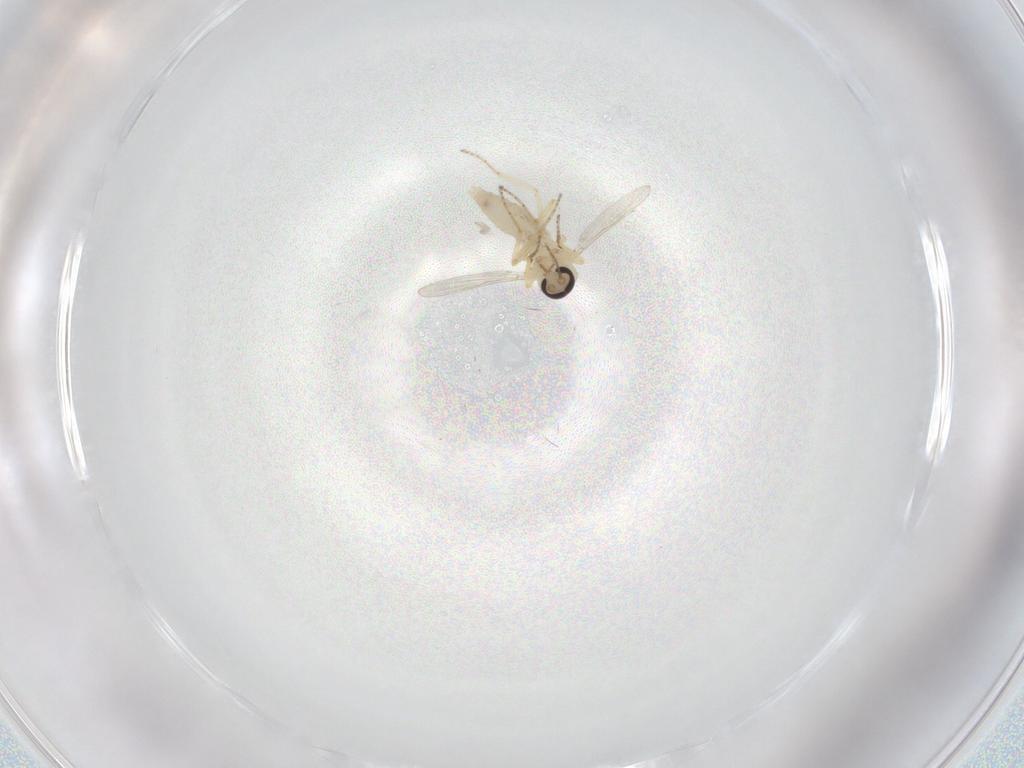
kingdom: Animalia
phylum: Arthropoda
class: Insecta
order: Diptera
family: Ceratopogonidae
